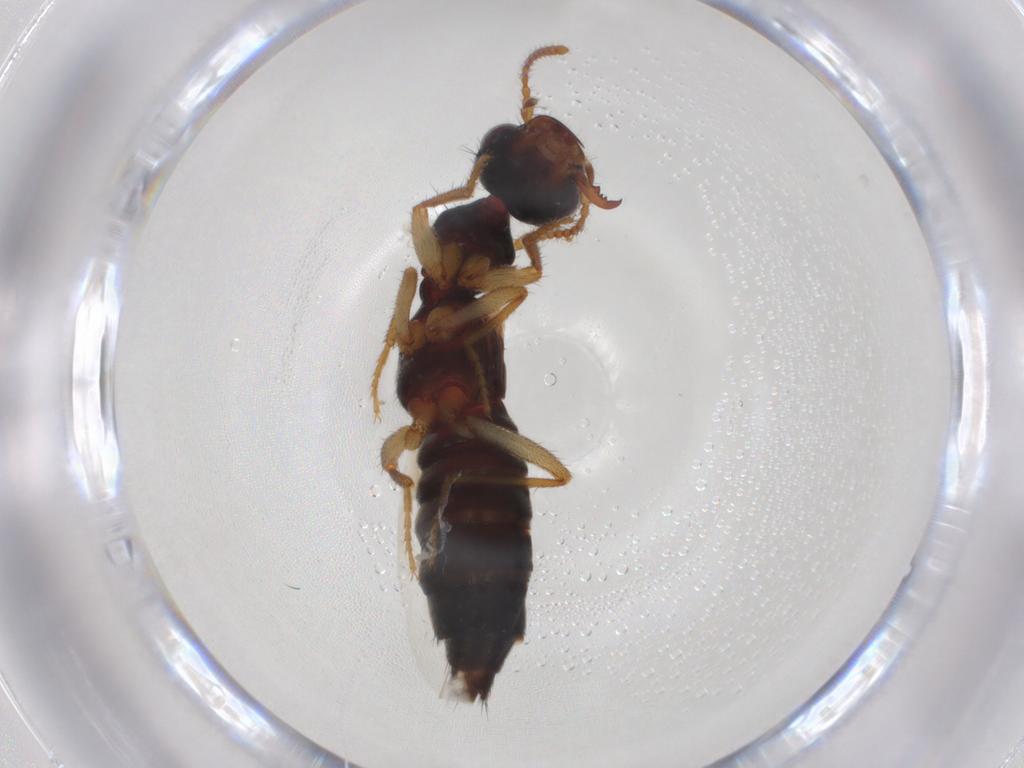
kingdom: Animalia
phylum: Arthropoda
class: Insecta
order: Coleoptera
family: Staphylinidae
